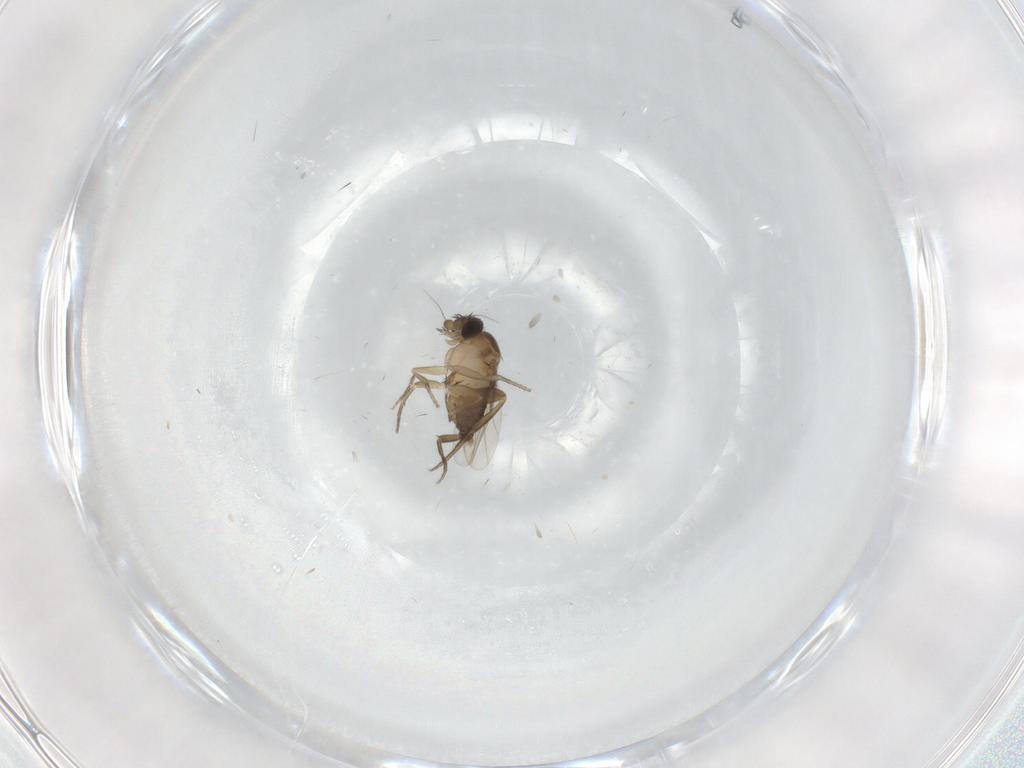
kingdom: Animalia
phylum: Arthropoda
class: Insecta
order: Diptera
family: Phoridae
